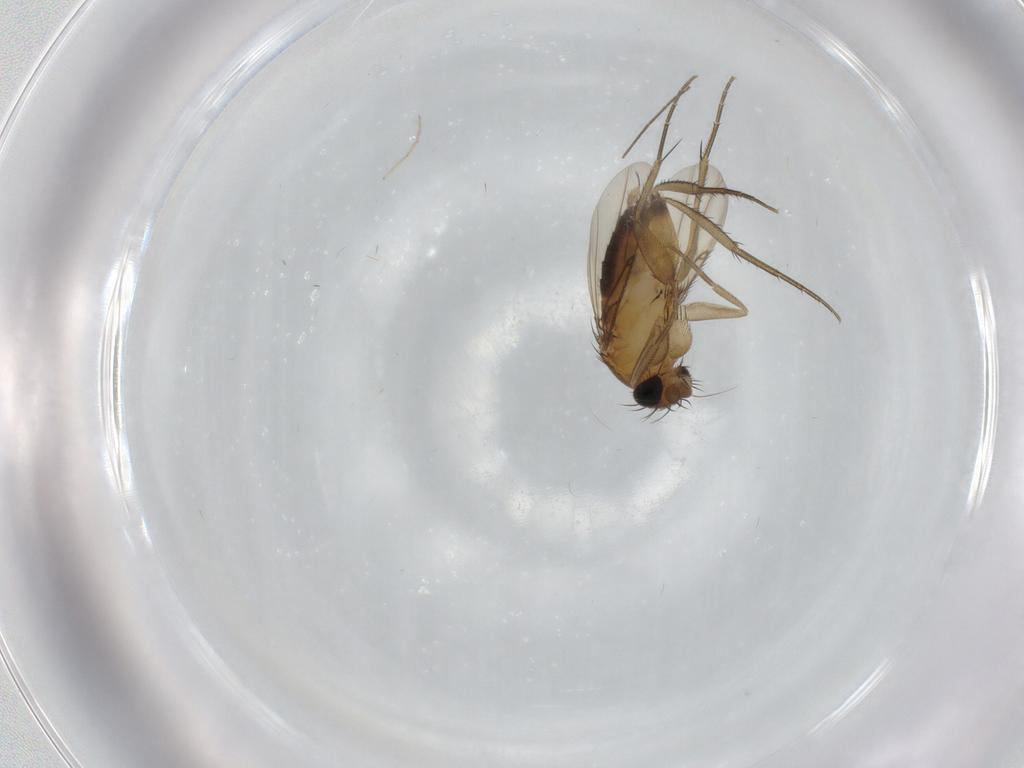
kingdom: Animalia
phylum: Arthropoda
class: Insecta
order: Diptera
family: Phoridae
